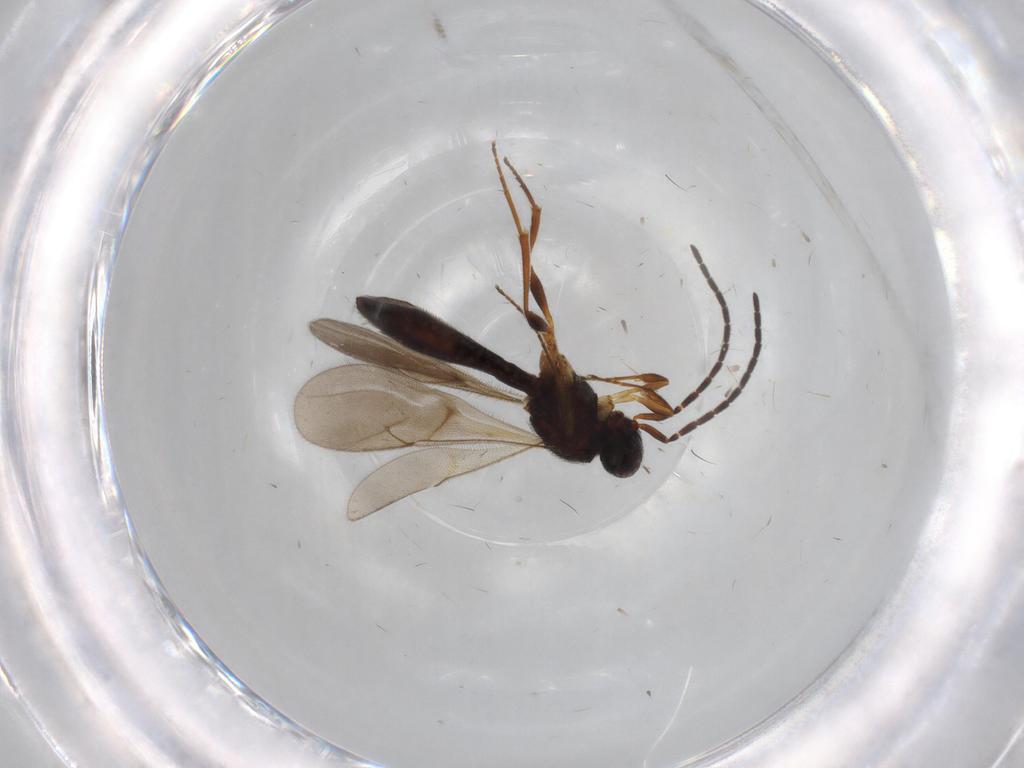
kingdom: Animalia
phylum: Arthropoda
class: Insecta
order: Hymenoptera
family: Scelionidae
